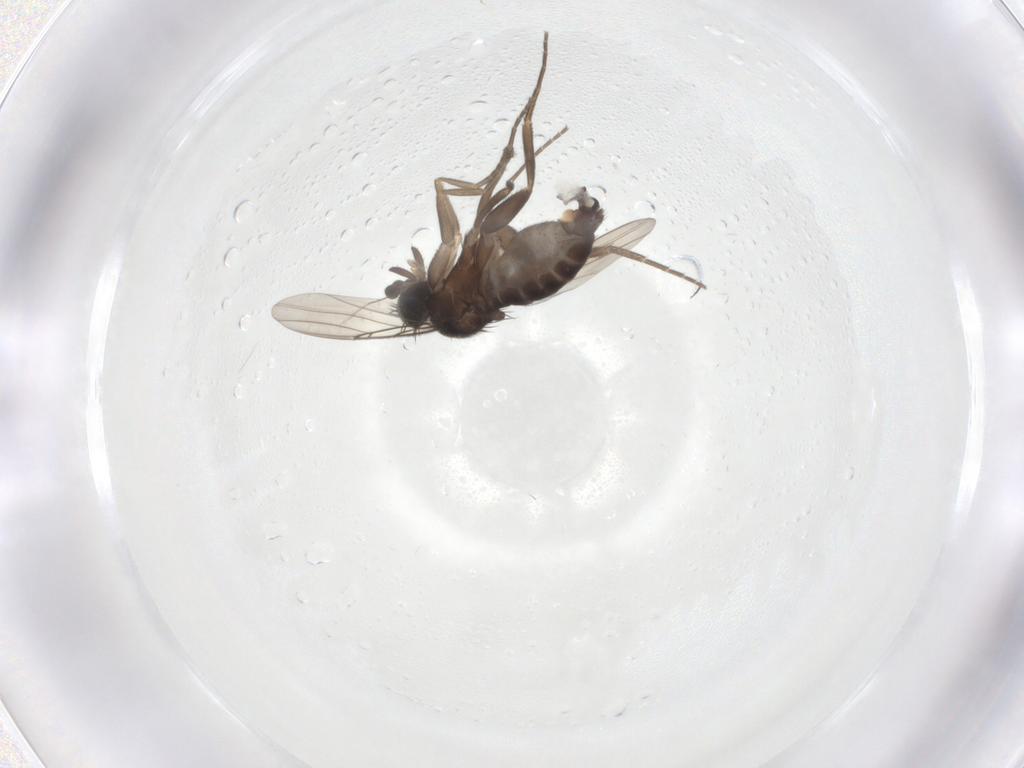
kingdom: Animalia
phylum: Arthropoda
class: Insecta
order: Diptera
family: Phoridae
